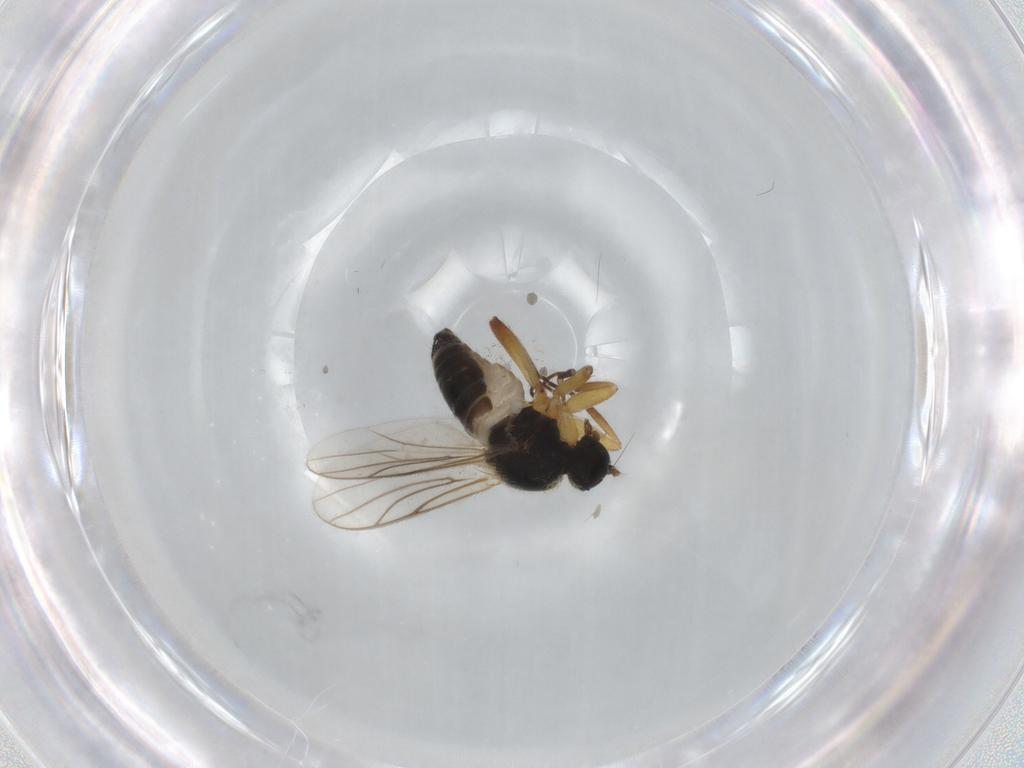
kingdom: Animalia
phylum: Arthropoda
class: Insecta
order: Diptera
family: Hybotidae
